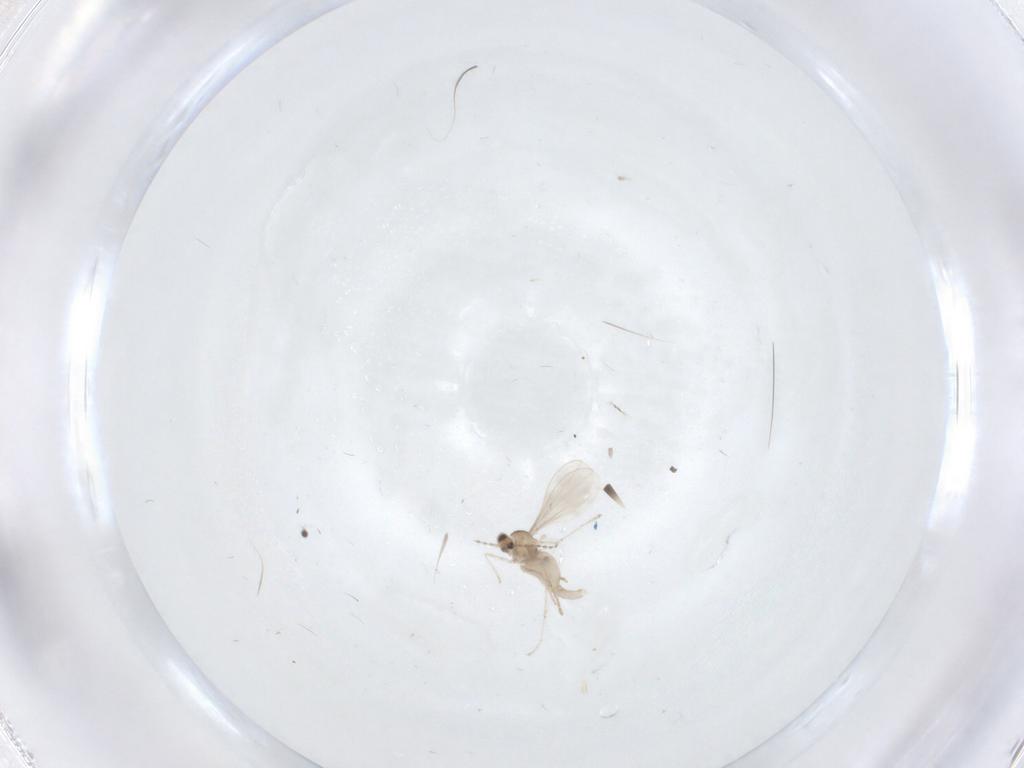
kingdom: Animalia
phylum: Arthropoda
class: Insecta
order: Diptera
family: Cecidomyiidae
